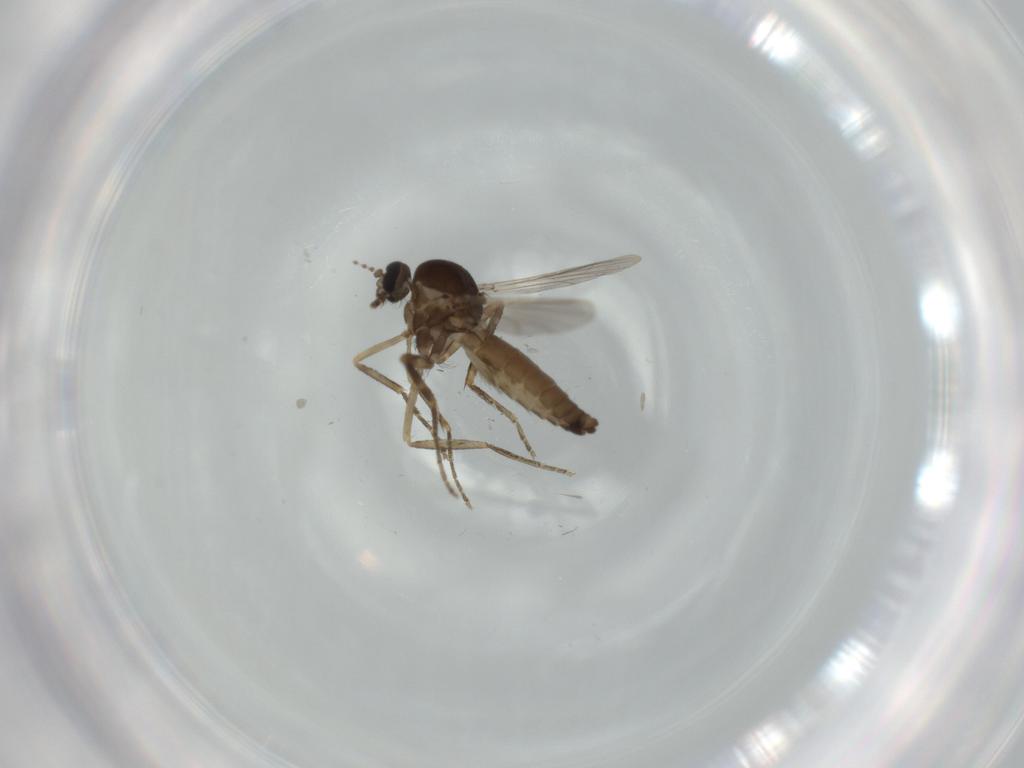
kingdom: Animalia
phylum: Arthropoda
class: Insecta
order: Diptera
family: Ceratopogonidae
